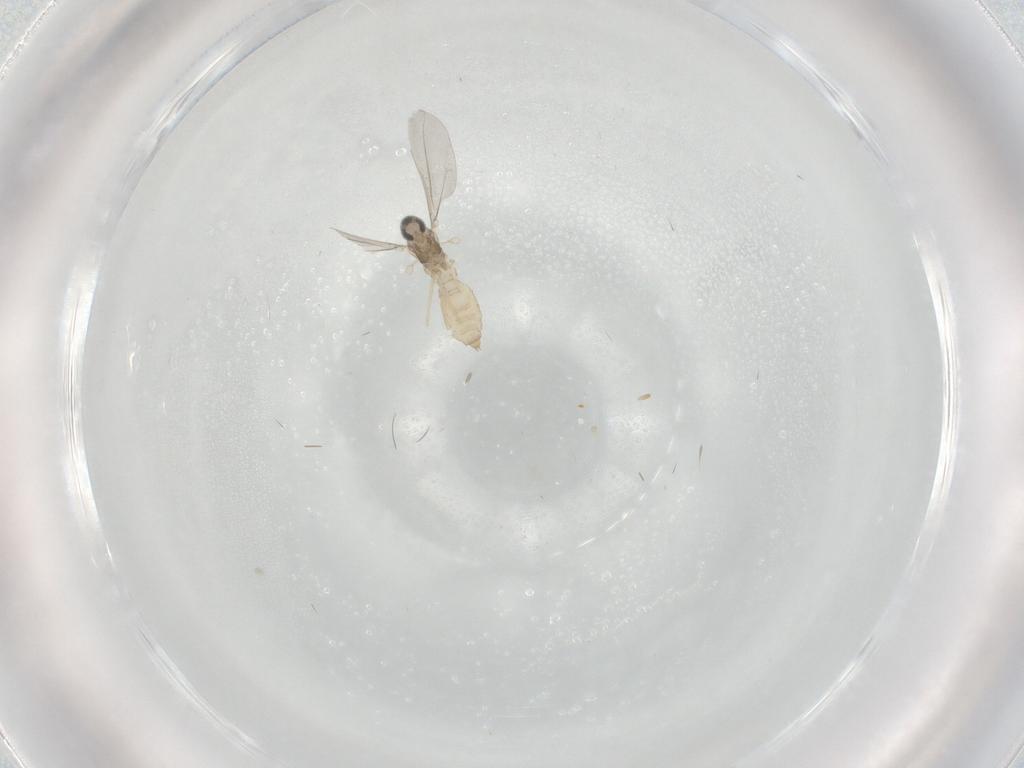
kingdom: Animalia
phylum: Arthropoda
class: Insecta
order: Diptera
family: Cecidomyiidae
